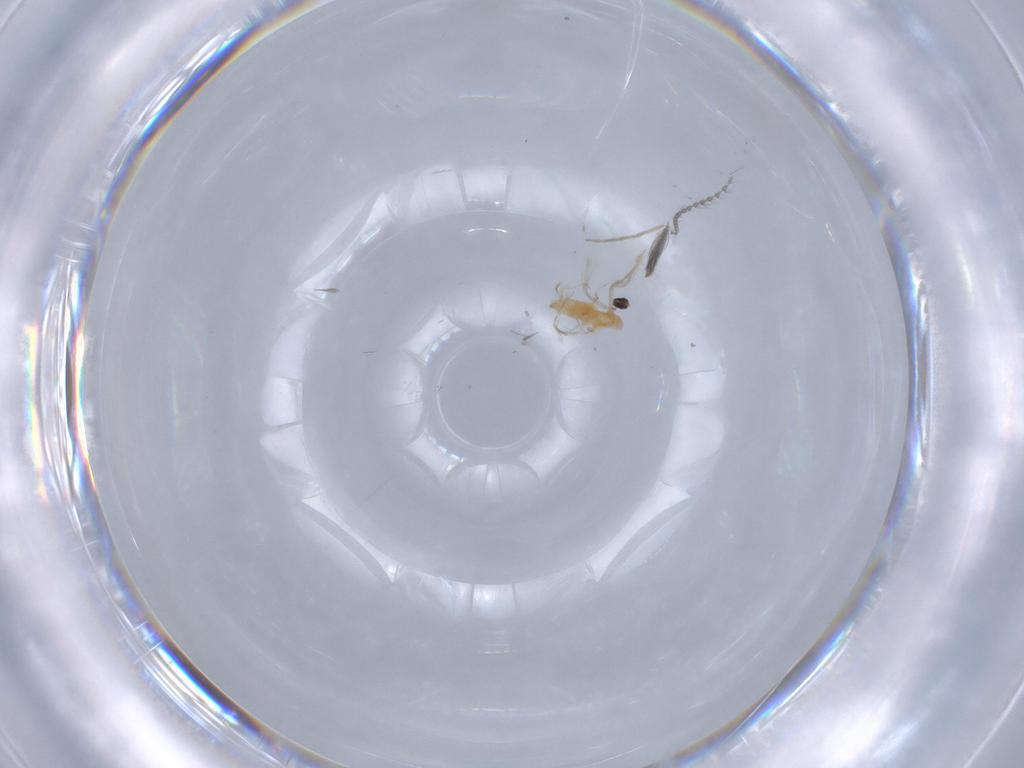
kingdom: Animalia
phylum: Arthropoda
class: Insecta
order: Diptera
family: Cecidomyiidae
